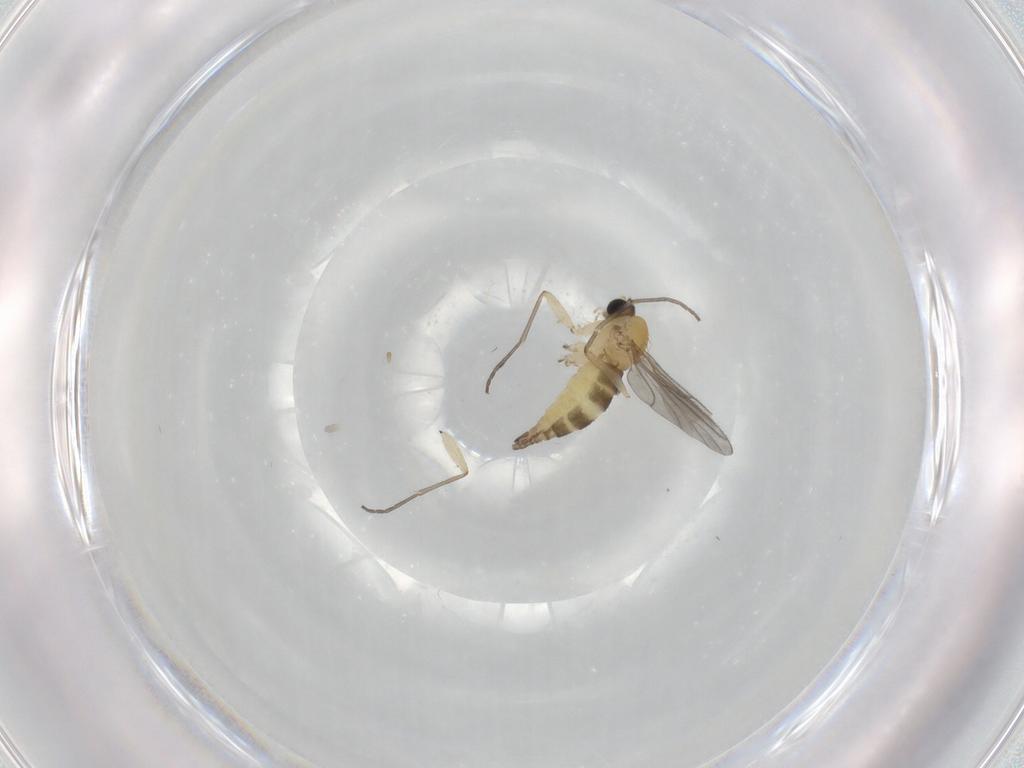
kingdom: Animalia
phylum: Arthropoda
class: Insecta
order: Diptera
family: Sciaridae
